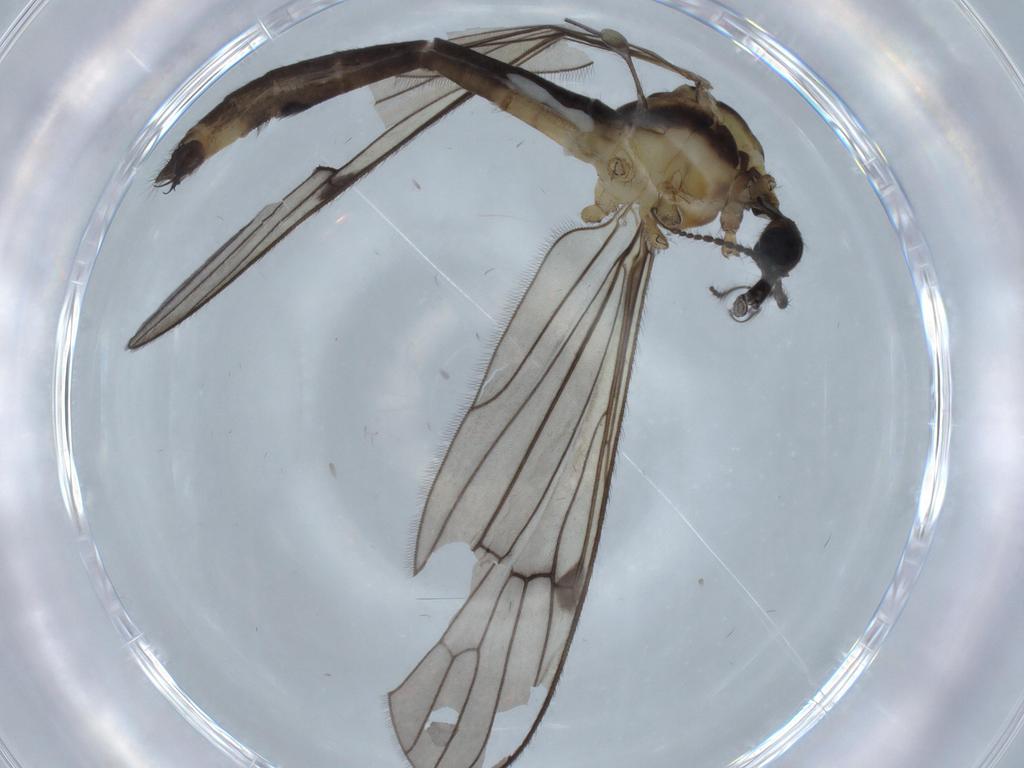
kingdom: Animalia
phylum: Arthropoda
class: Insecta
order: Diptera
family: Limoniidae
